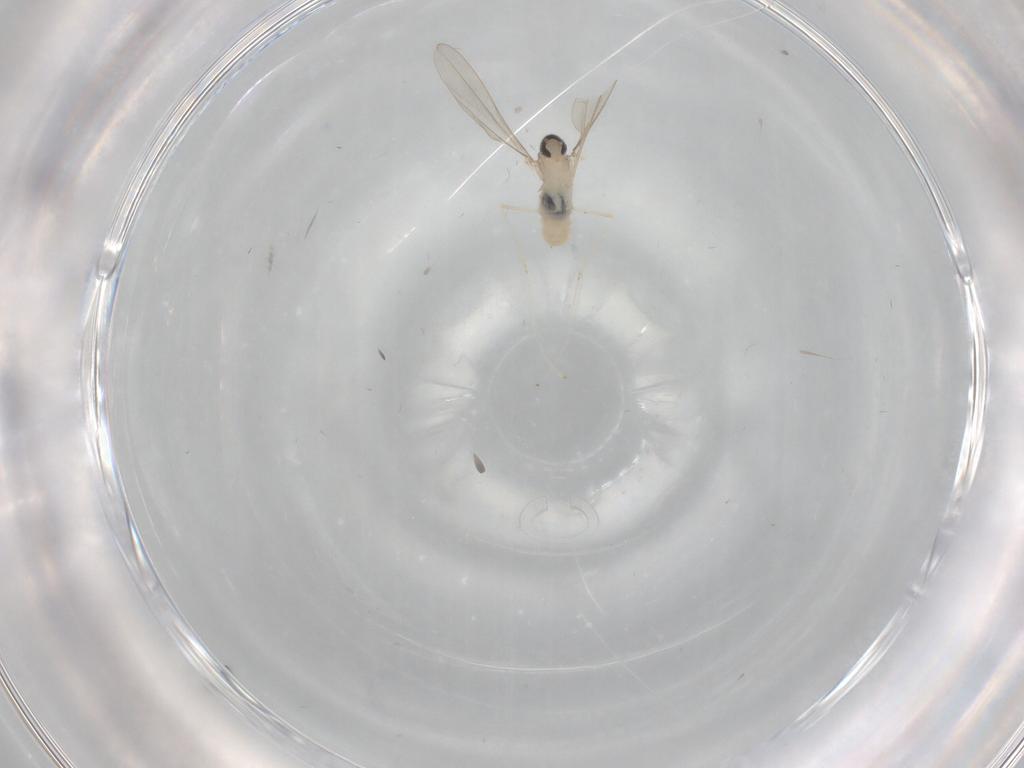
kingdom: Animalia
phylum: Arthropoda
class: Insecta
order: Diptera
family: Cecidomyiidae
